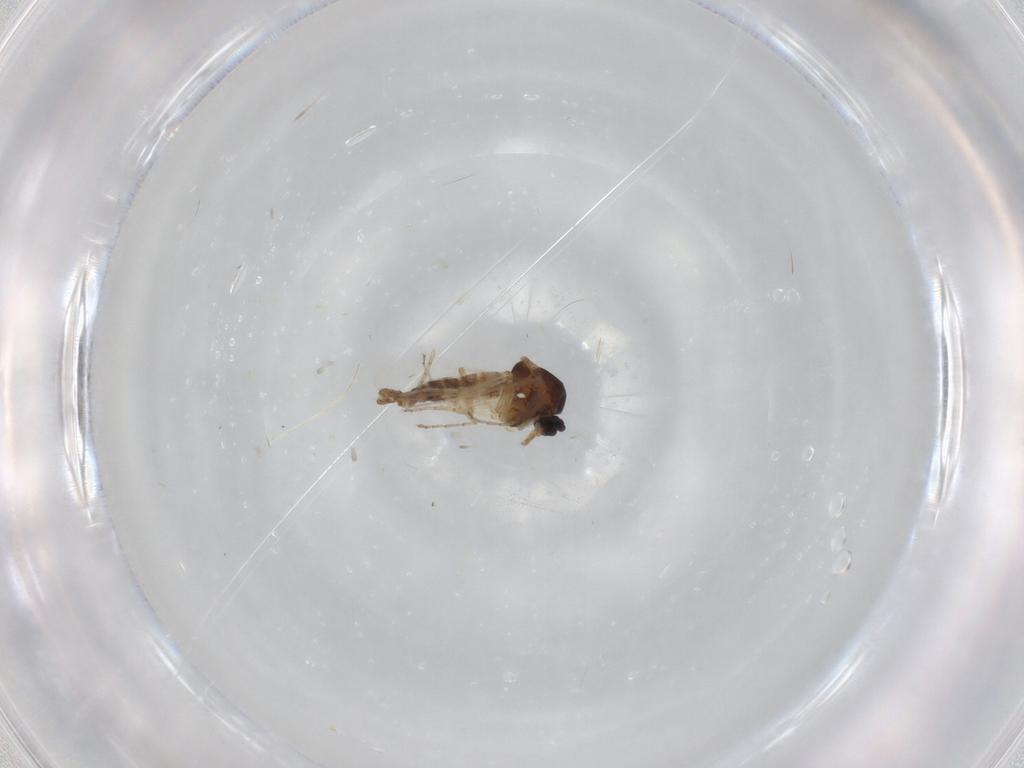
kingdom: Animalia
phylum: Arthropoda
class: Insecta
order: Diptera
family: Ceratopogonidae
